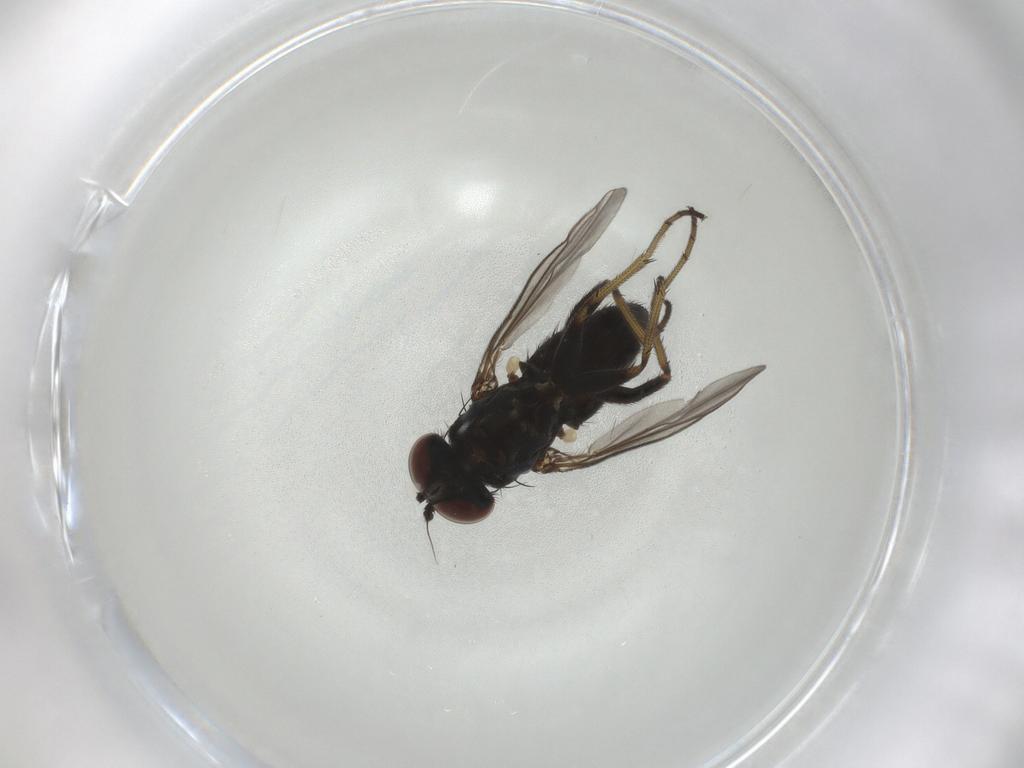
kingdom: Animalia
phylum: Arthropoda
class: Insecta
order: Diptera
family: Dolichopodidae
